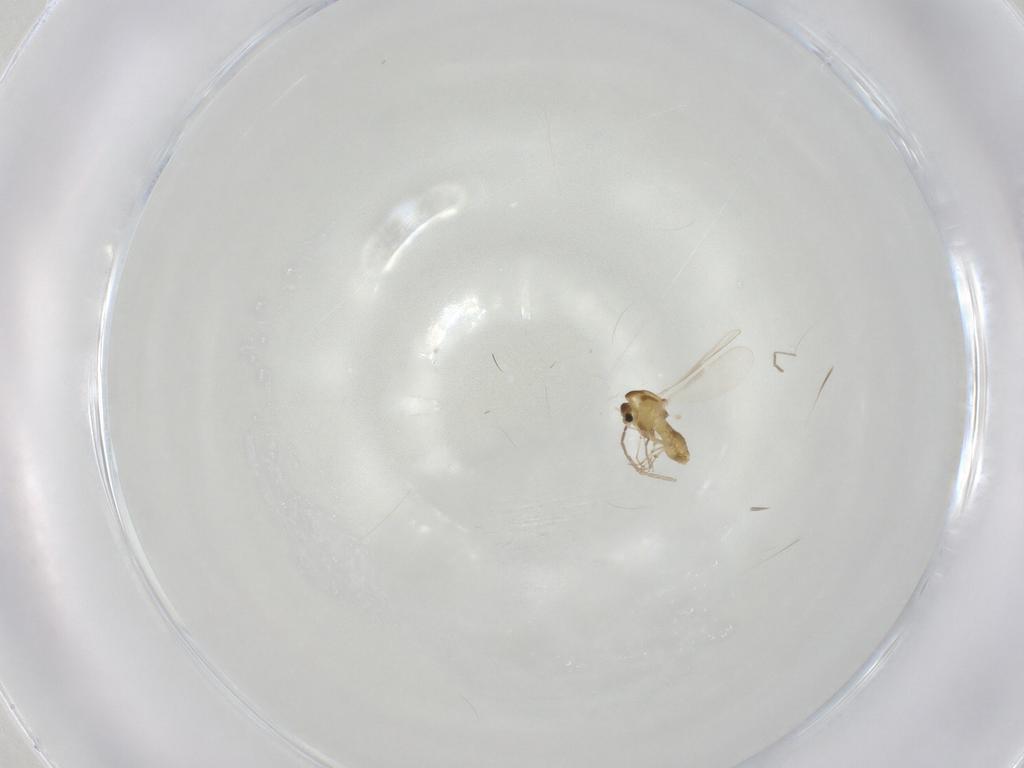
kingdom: Animalia
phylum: Arthropoda
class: Insecta
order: Diptera
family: Chironomidae
